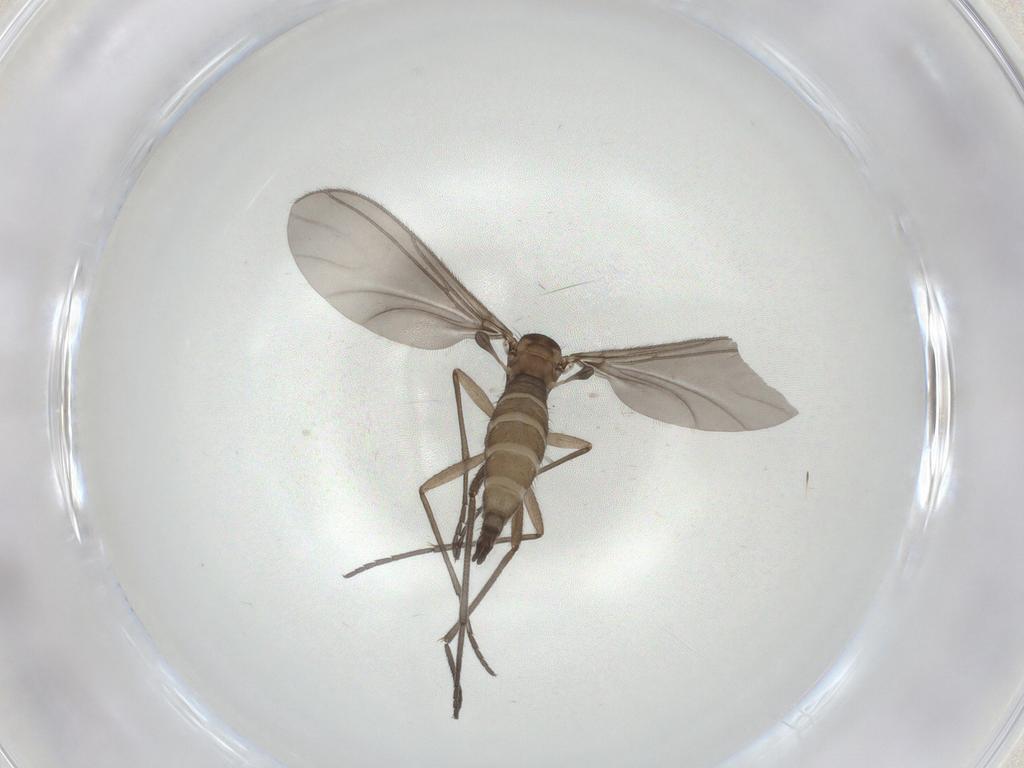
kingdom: Animalia
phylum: Arthropoda
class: Insecta
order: Diptera
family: Sciaridae
